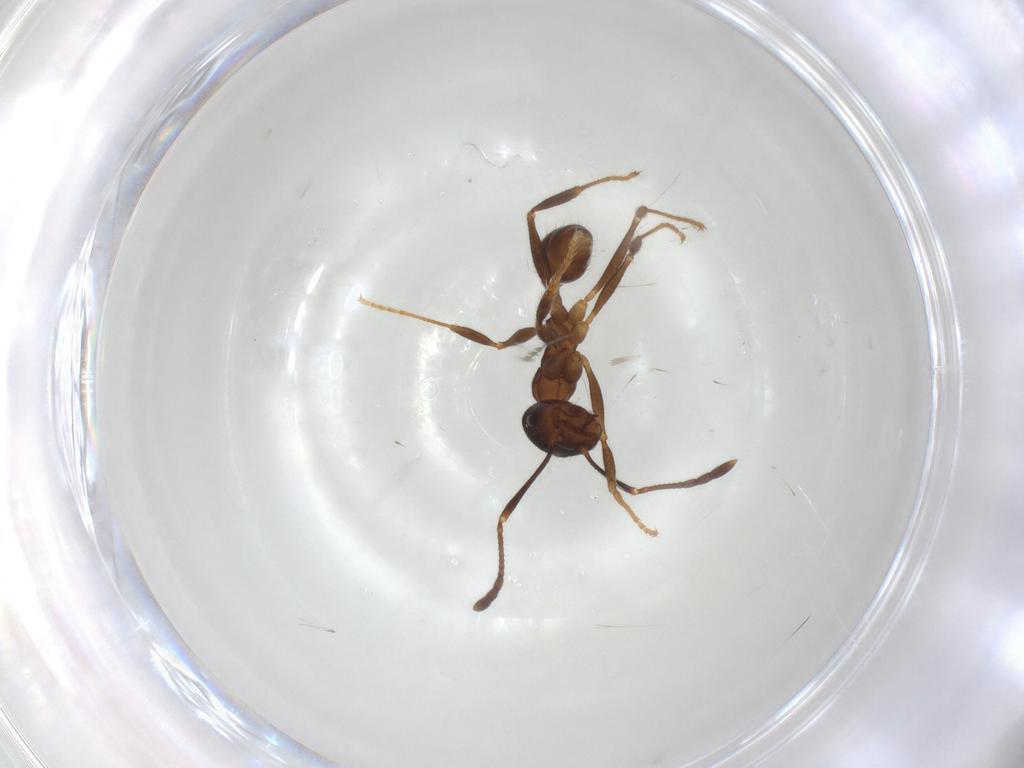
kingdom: Animalia
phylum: Arthropoda
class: Insecta
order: Hymenoptera
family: Formicidae
